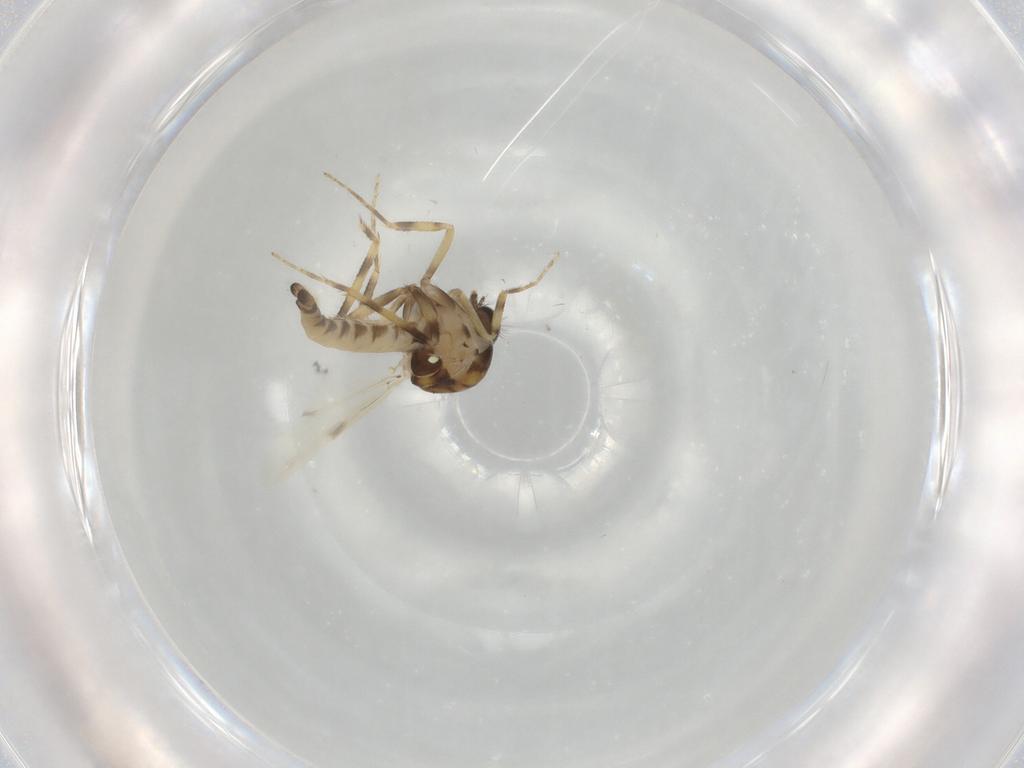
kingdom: Animalia
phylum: Arthropoda
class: Insecta
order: Diptera
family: Ceratopogonidae
